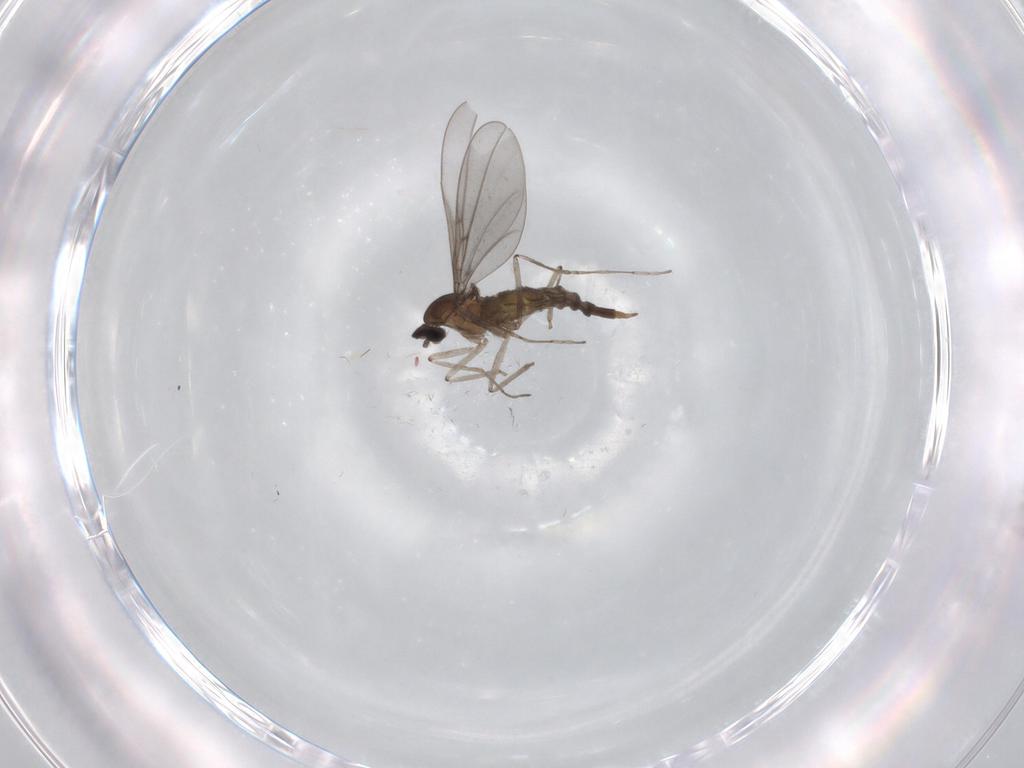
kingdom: Animalia
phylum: Arthropoda
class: Insecta
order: Diptera
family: Cecidomyiidae
